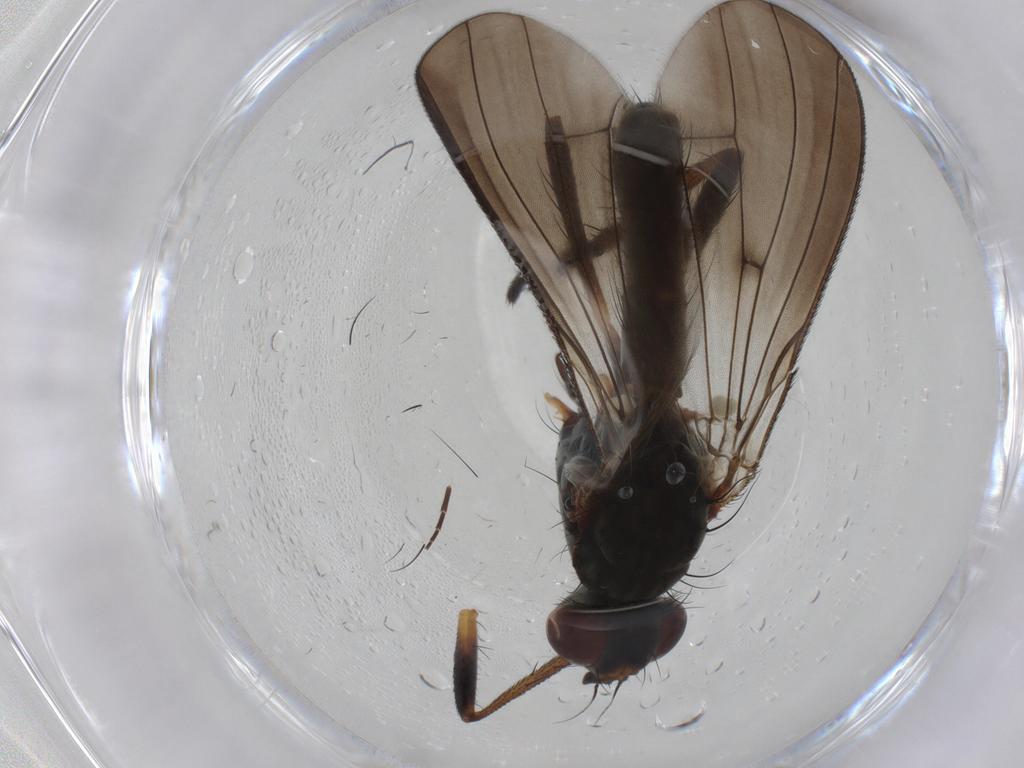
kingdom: Animalia
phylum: Arthropoda
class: Insecta
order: Diptera
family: Anthomyiidae
